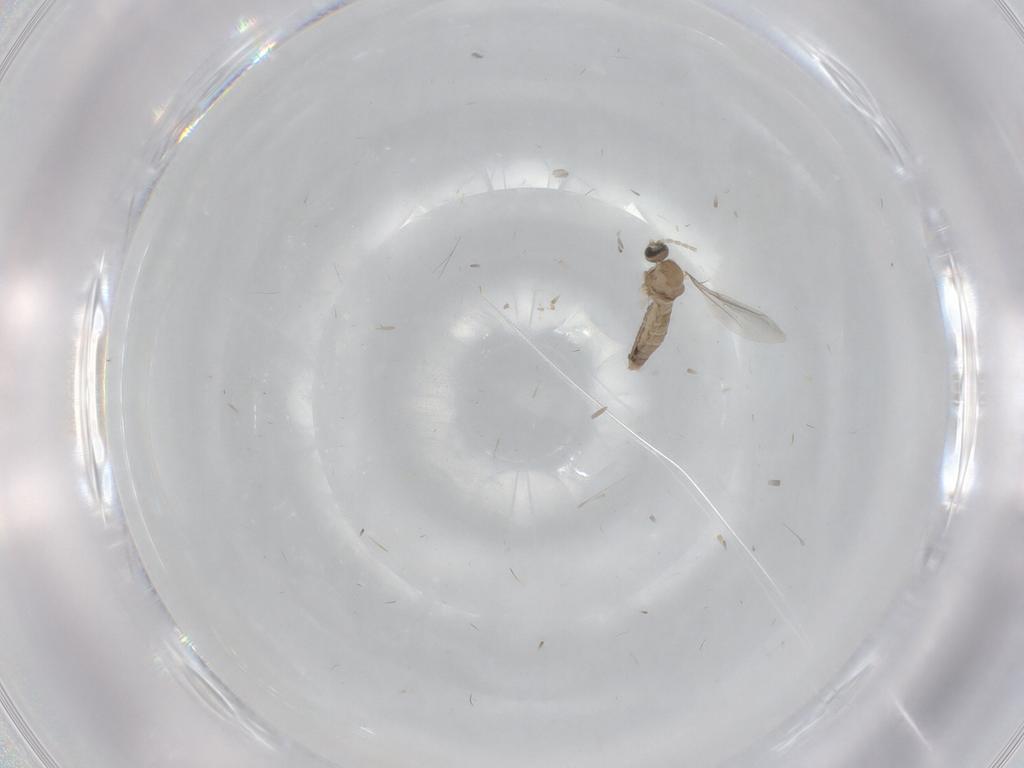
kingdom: Animalia
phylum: Arthropoda
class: Insecta
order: Diptera
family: Cecidomyiidae
